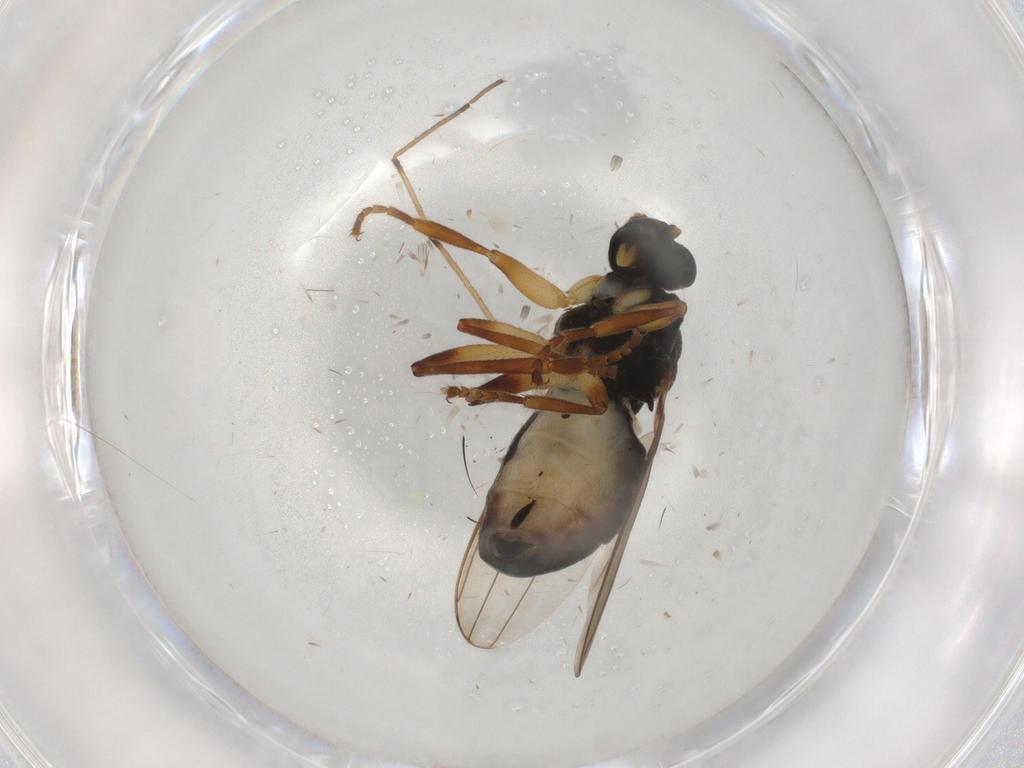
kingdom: Animalia
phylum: Arthropoda
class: Insecta
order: Diptera
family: Sphaeroceridae
